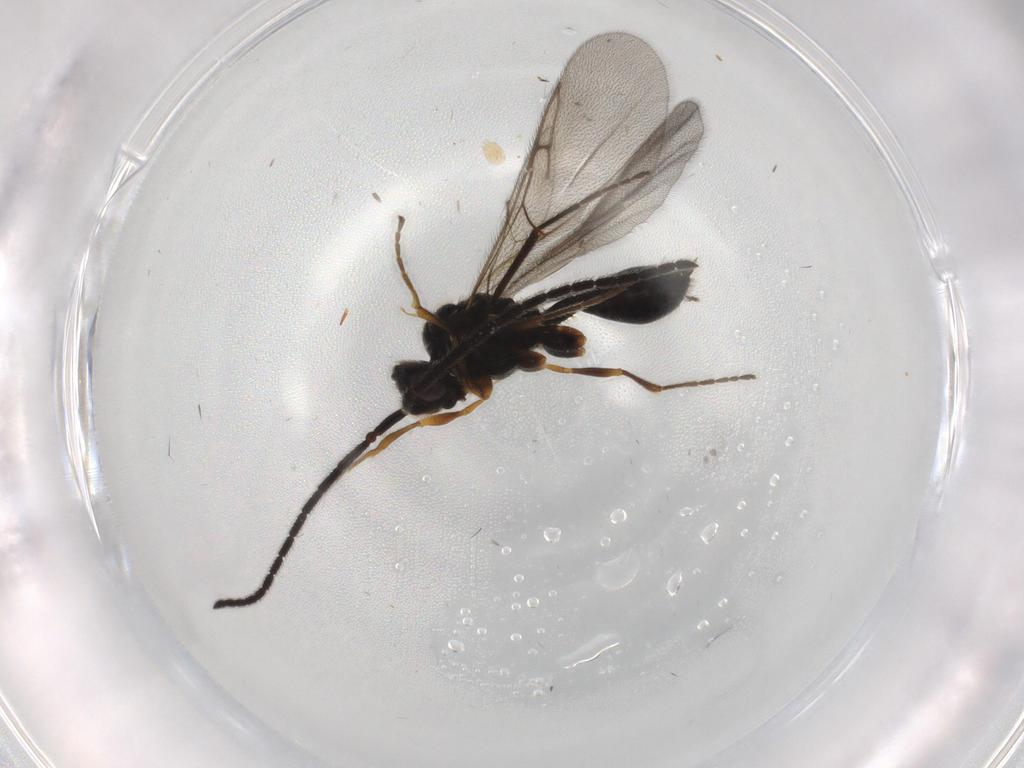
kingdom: Animalia
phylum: Arthropoda
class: Insecta
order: Hymenoptera
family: Diapriidae
